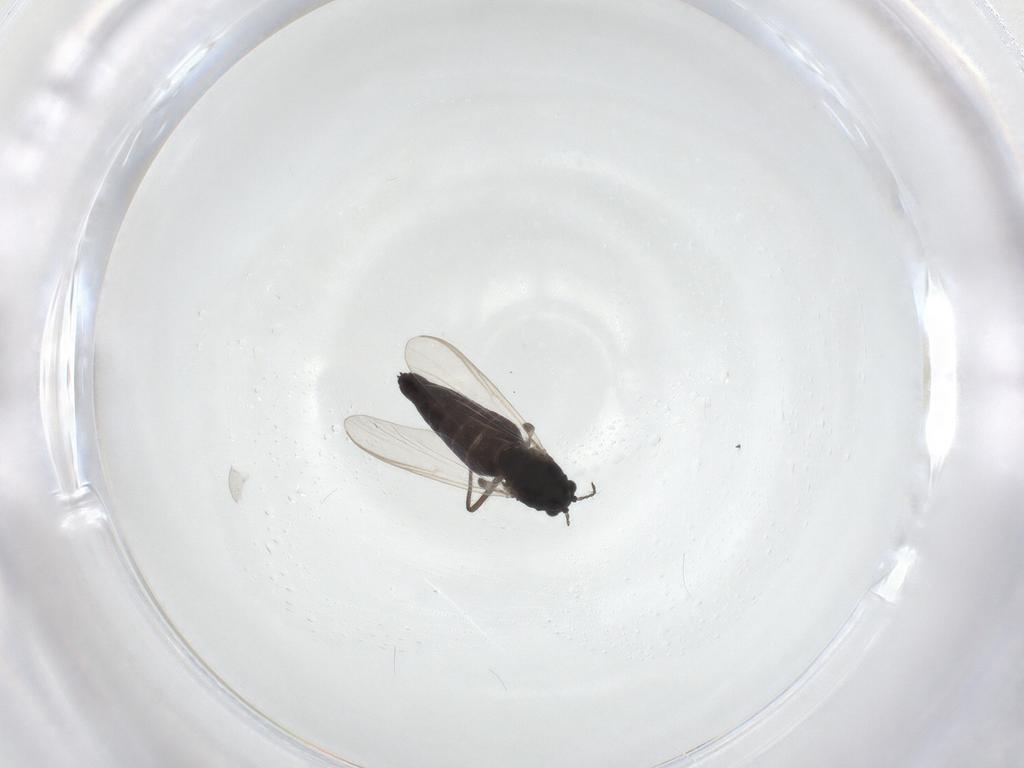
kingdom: Animalia
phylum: Arthropoda
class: Insecta
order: Diptera
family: Chironomidae
